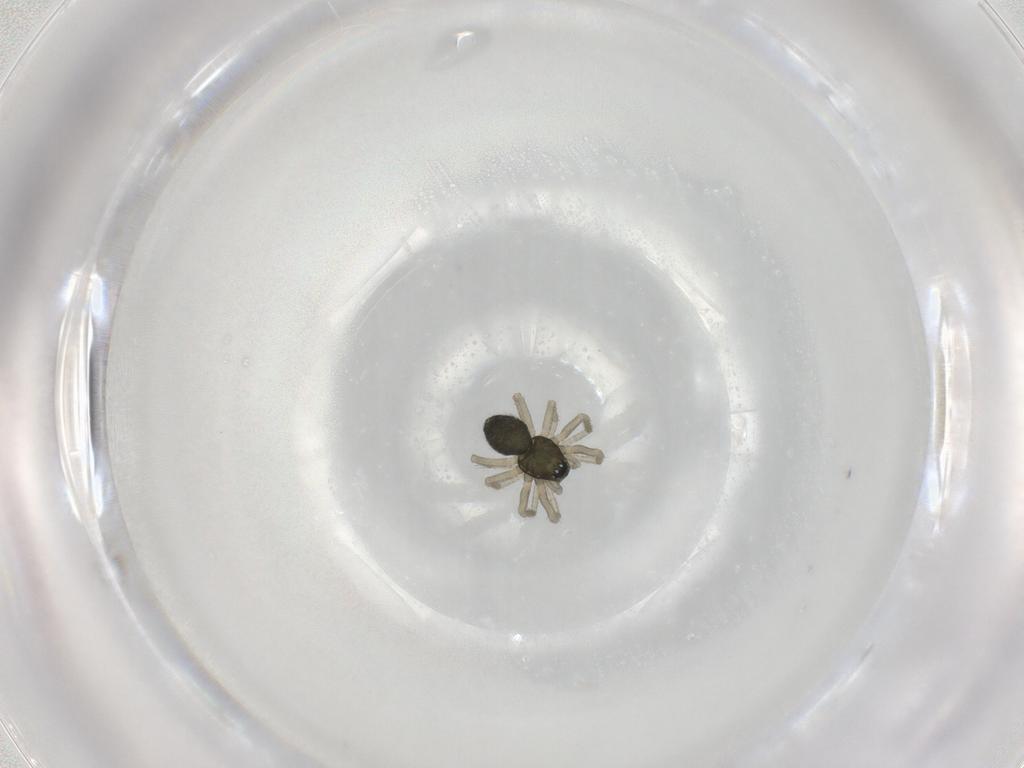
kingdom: Animalia
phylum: Arthropoda
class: Arachnida
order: Araneae
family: Linyphiidae
